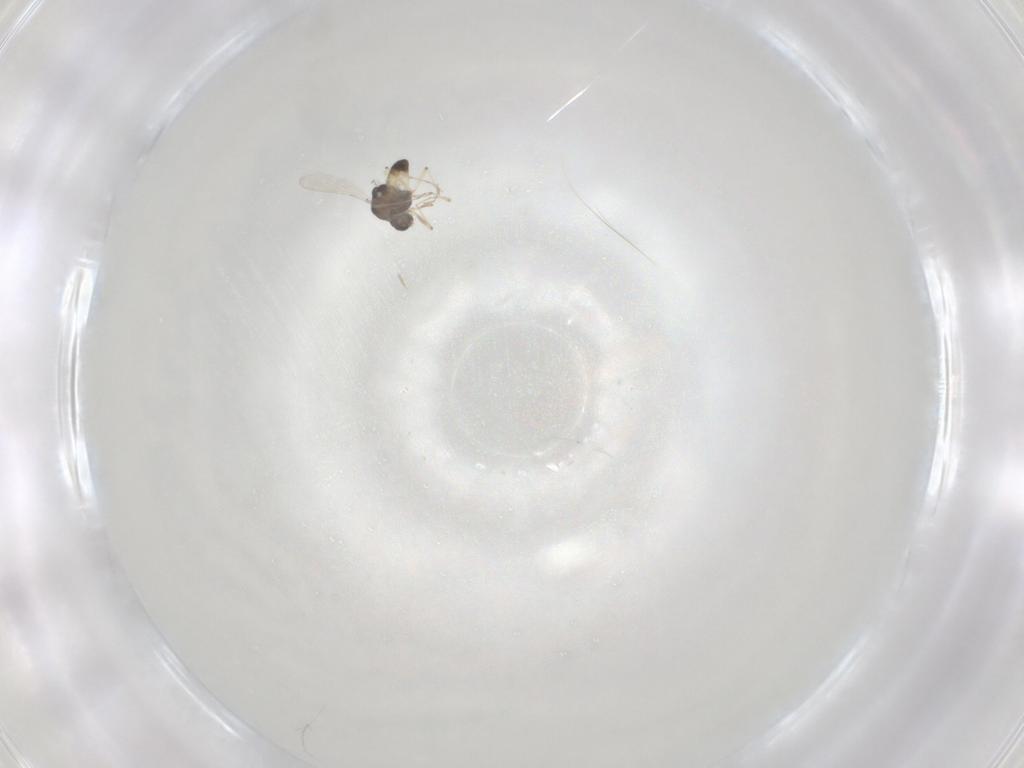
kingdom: Animalia
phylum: Arthropoda
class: Insecta
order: Diptera
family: Chironomidae
